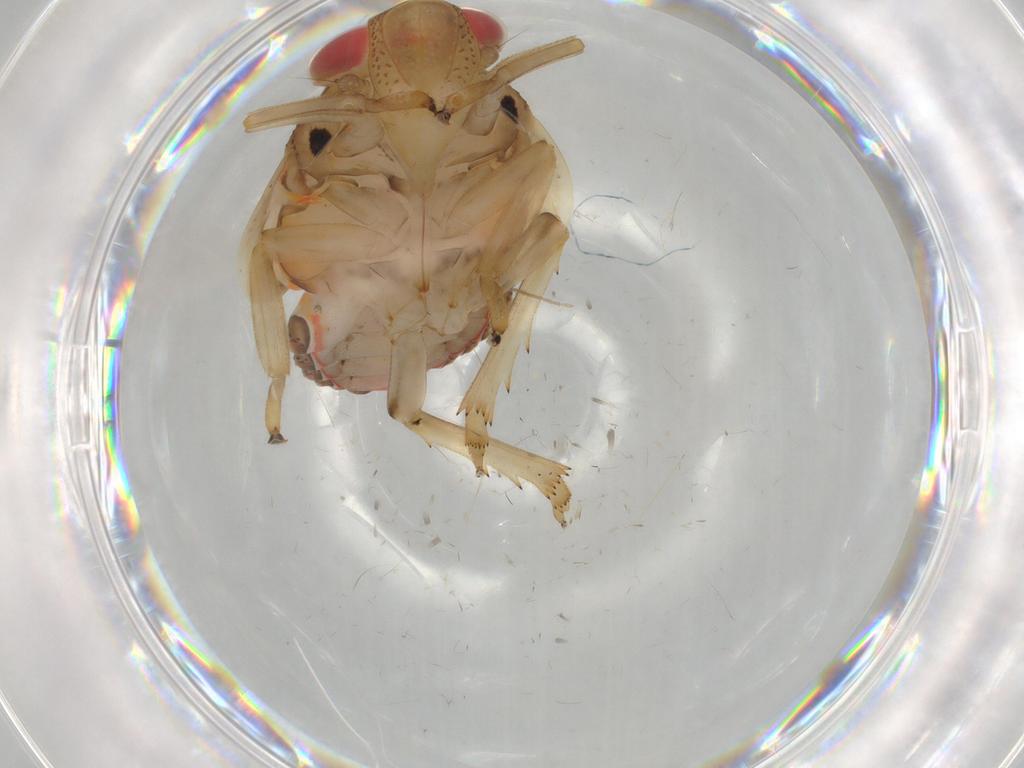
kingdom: Animalia
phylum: Arthropoda
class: Insecta
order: Hemiptera
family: Issidae
